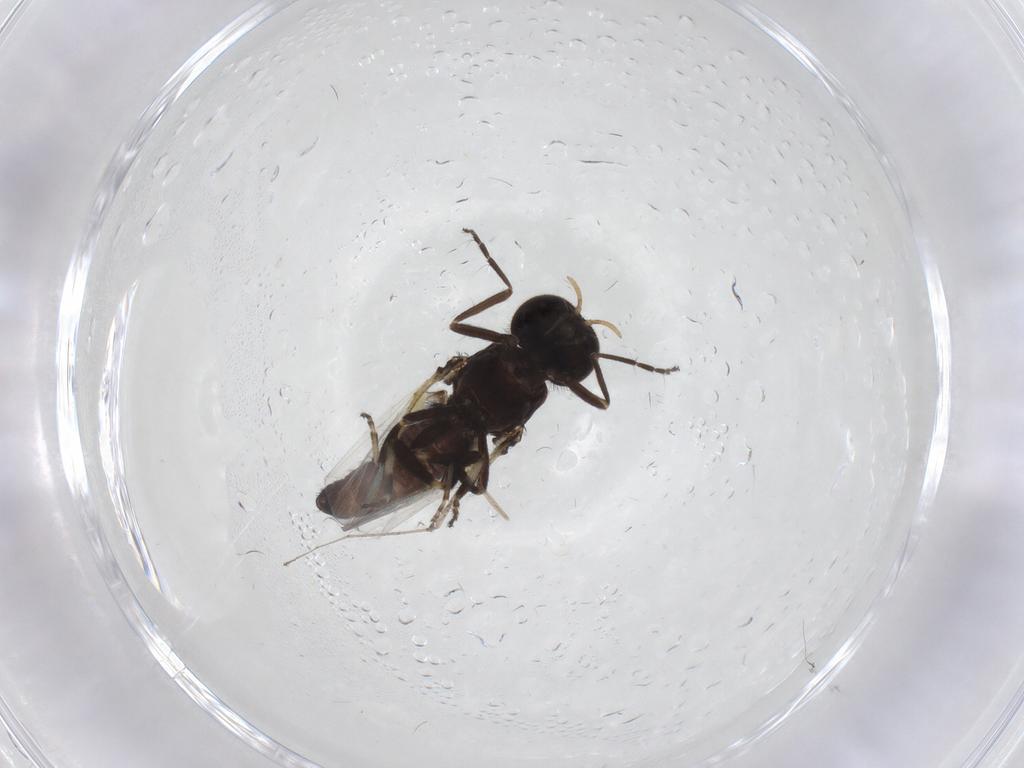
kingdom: Animalia
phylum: Arthropoda
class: Insecta
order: Diptera
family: Simuliidae
